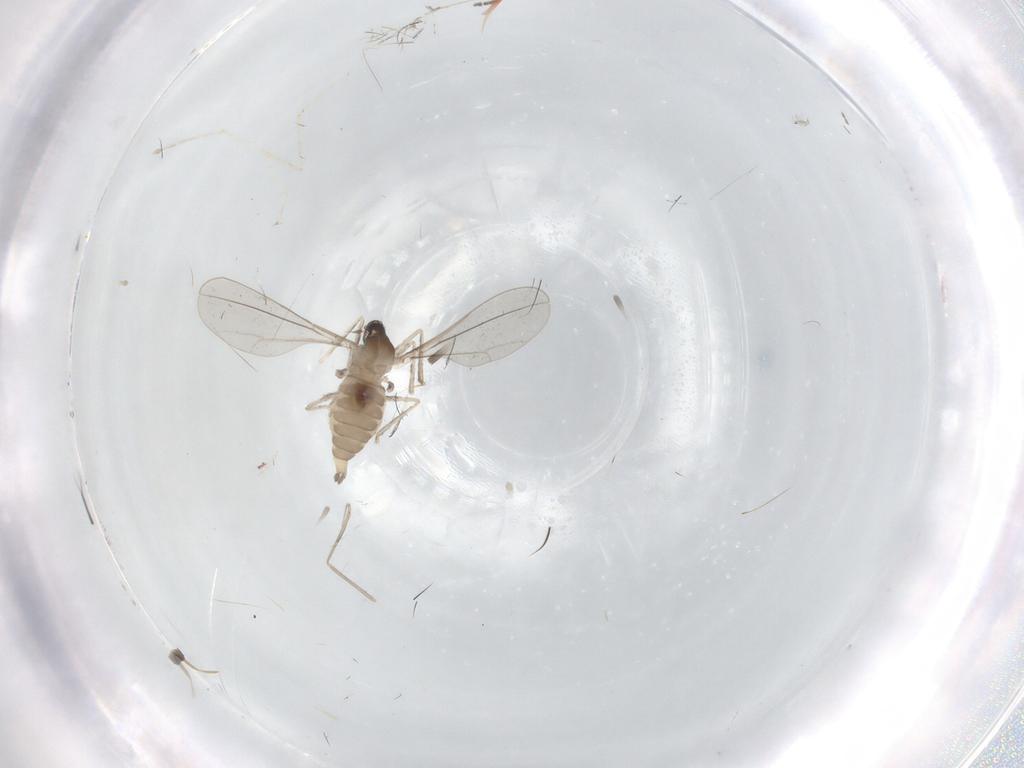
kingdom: Animalia
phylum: Arthropoda
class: Insecta
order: Diptera
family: Cecidomyiidae
